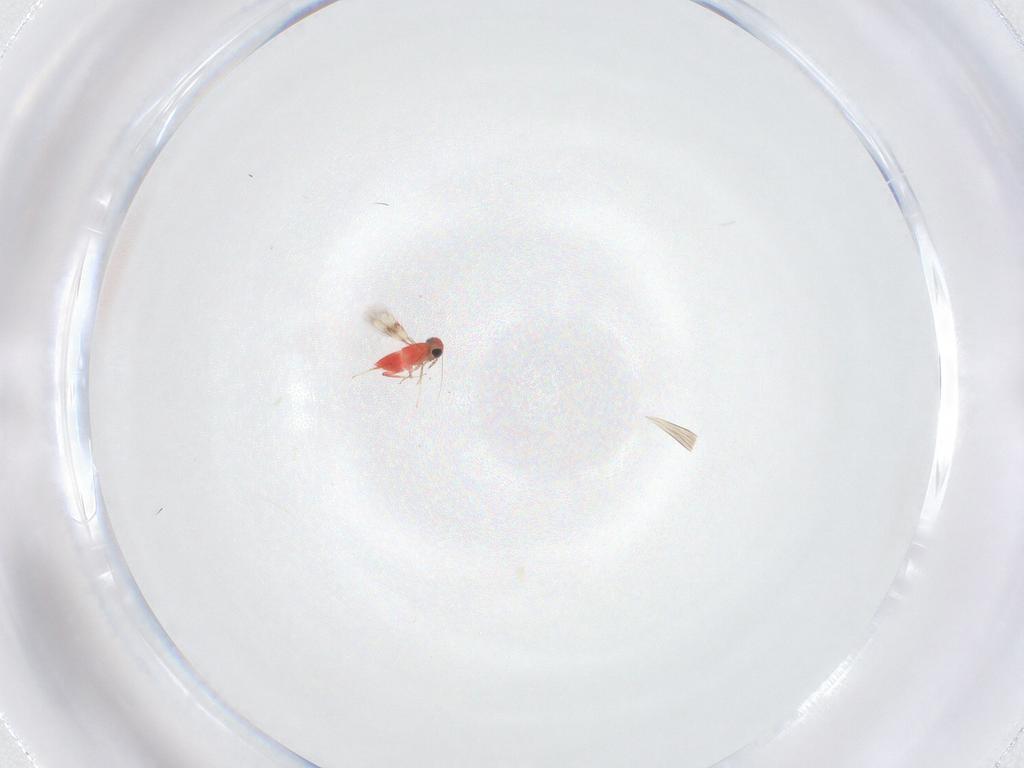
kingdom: Animalia
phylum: Arthropoda
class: Insecta
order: Hymenoptera
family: Trichogrammatidae
